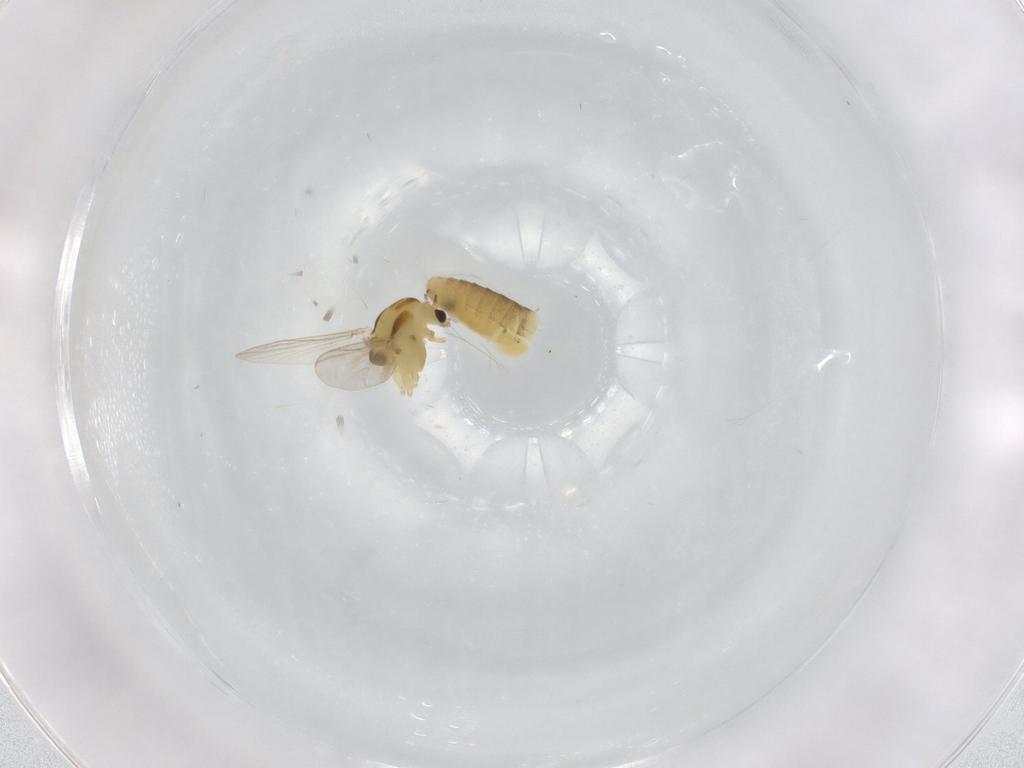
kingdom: Animalia
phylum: Arthropoda
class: Insecta
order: Diptera
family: Chironomidae
